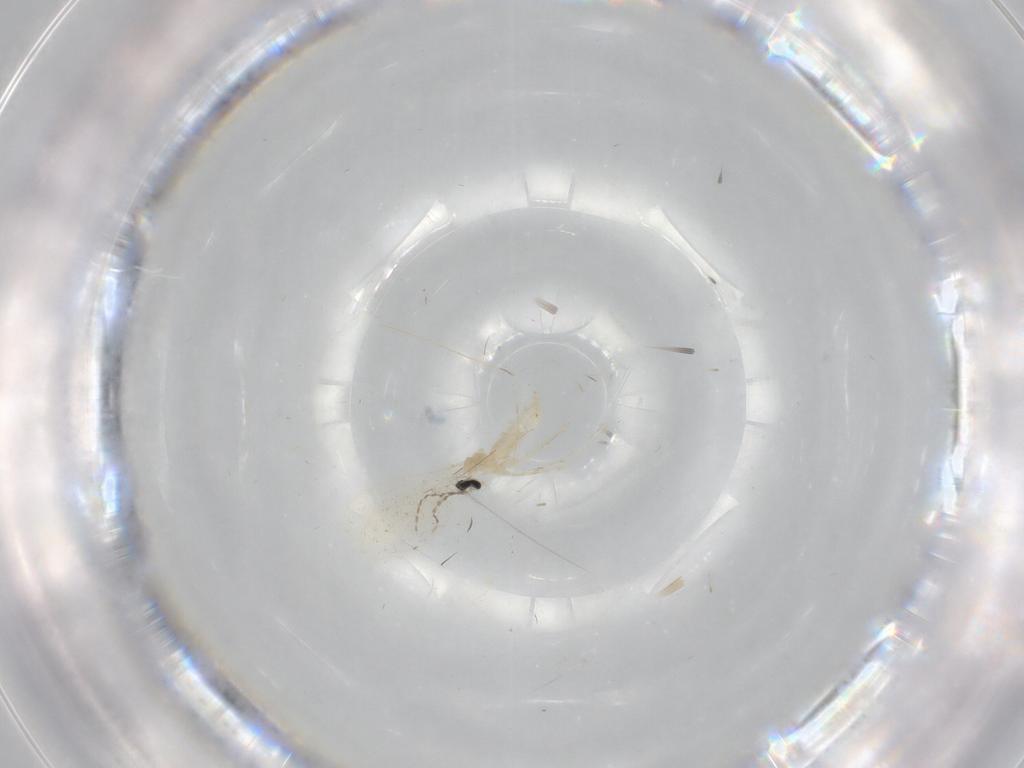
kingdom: Animalia
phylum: Arthropoda
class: Insecta
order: Diptera
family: Cecidomyiidae
